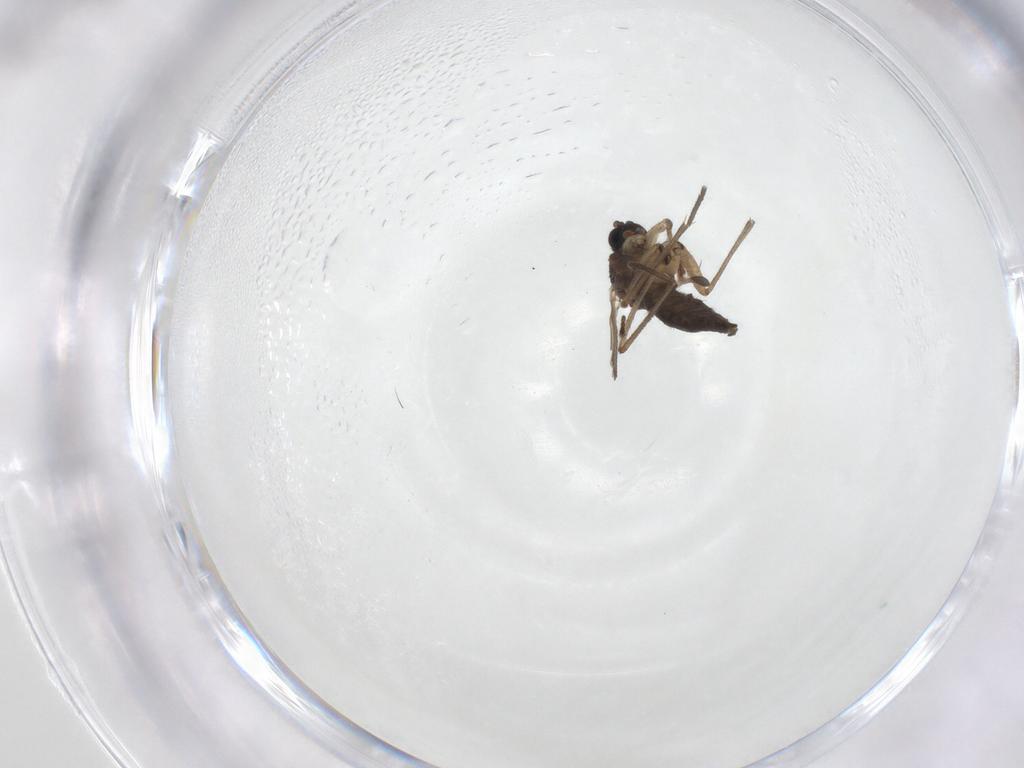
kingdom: Animalia
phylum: Arthropoda
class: Insecta
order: Diptera
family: Sciaridae
